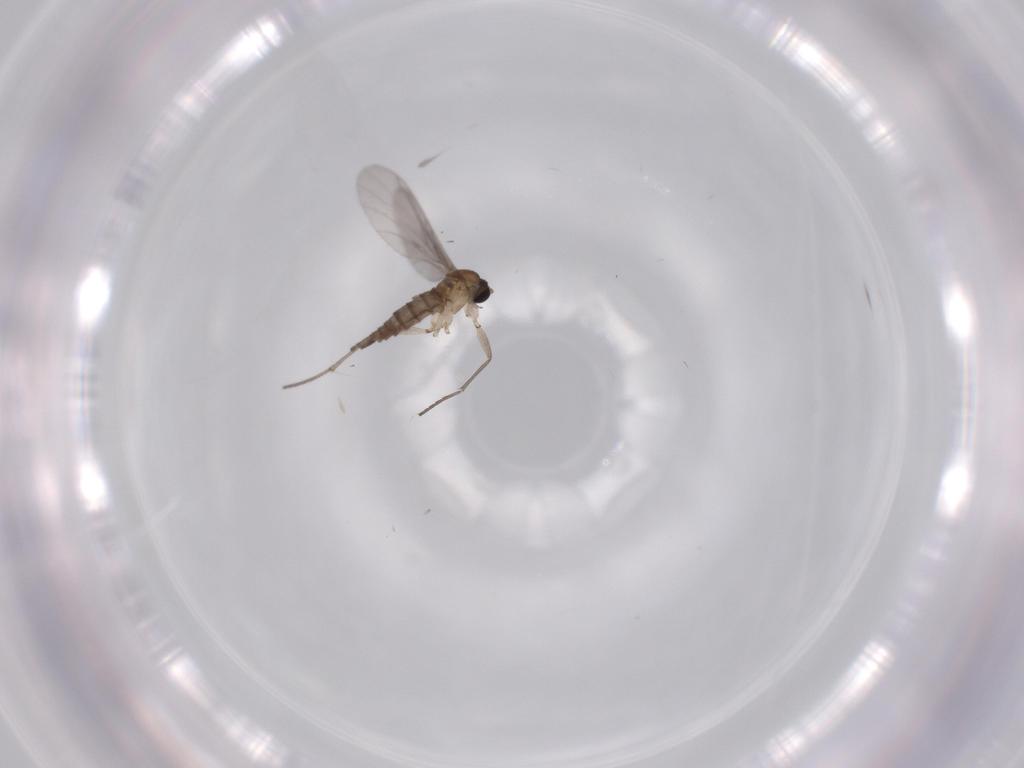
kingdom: Animalia
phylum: Arthropoda
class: Insecta
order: Diptera
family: Sciaridae
